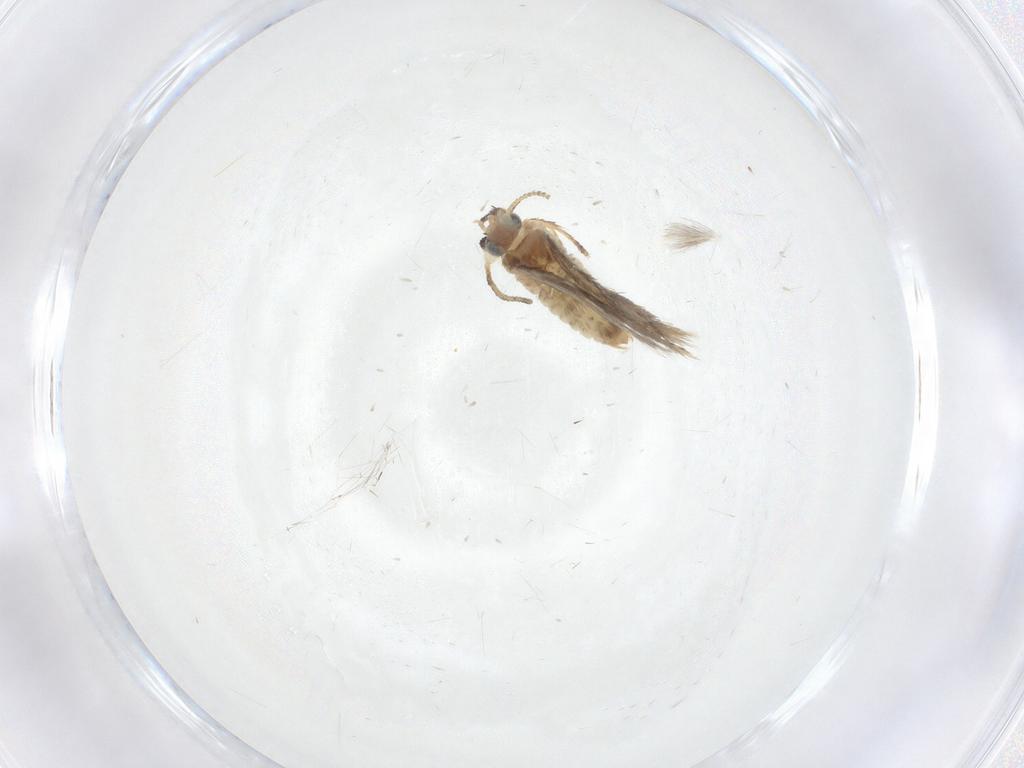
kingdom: Animalia
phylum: Arthropoda
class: Insecta
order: Lepidoptera
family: Nepticulidae
